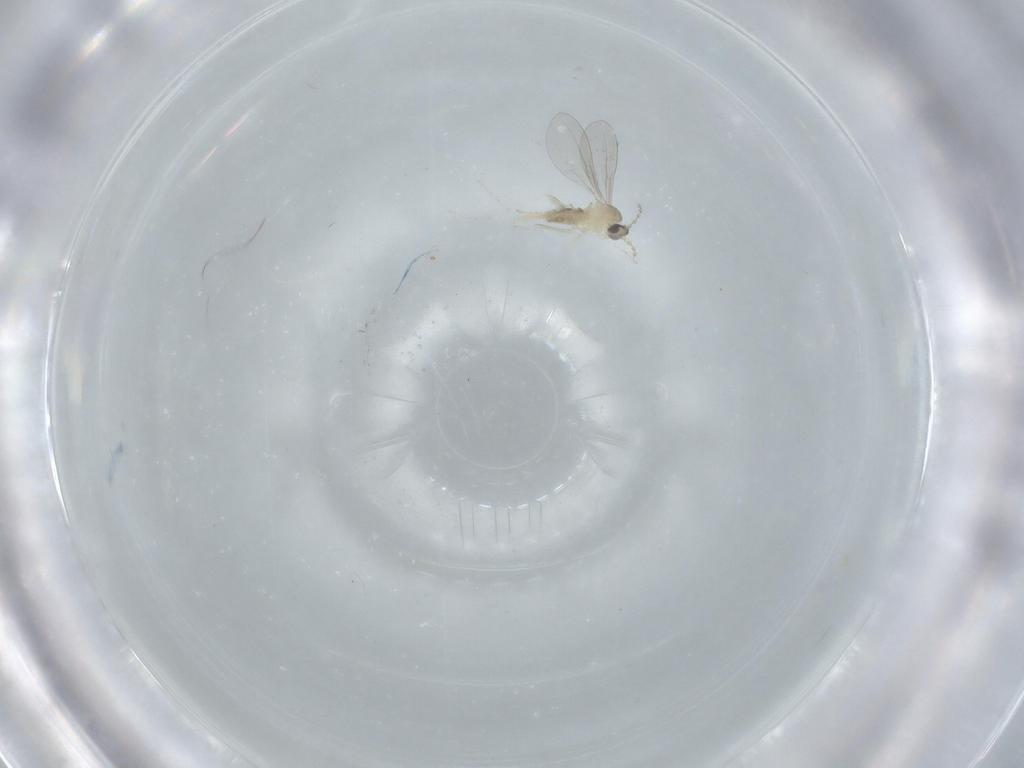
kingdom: Animalia
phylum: Arthropoda
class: Insecta
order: Diptera
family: Cecidomyiidae
